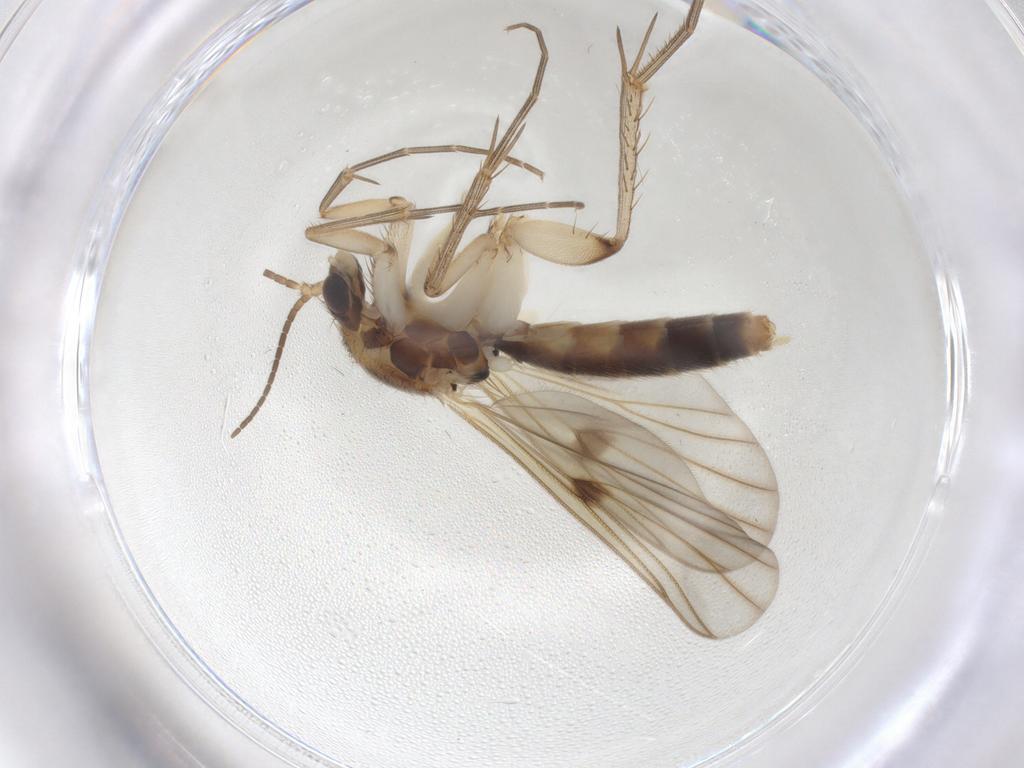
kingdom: Animalia
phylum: Arthropoda
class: Insecta
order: Diptera
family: Mycetophilidae
